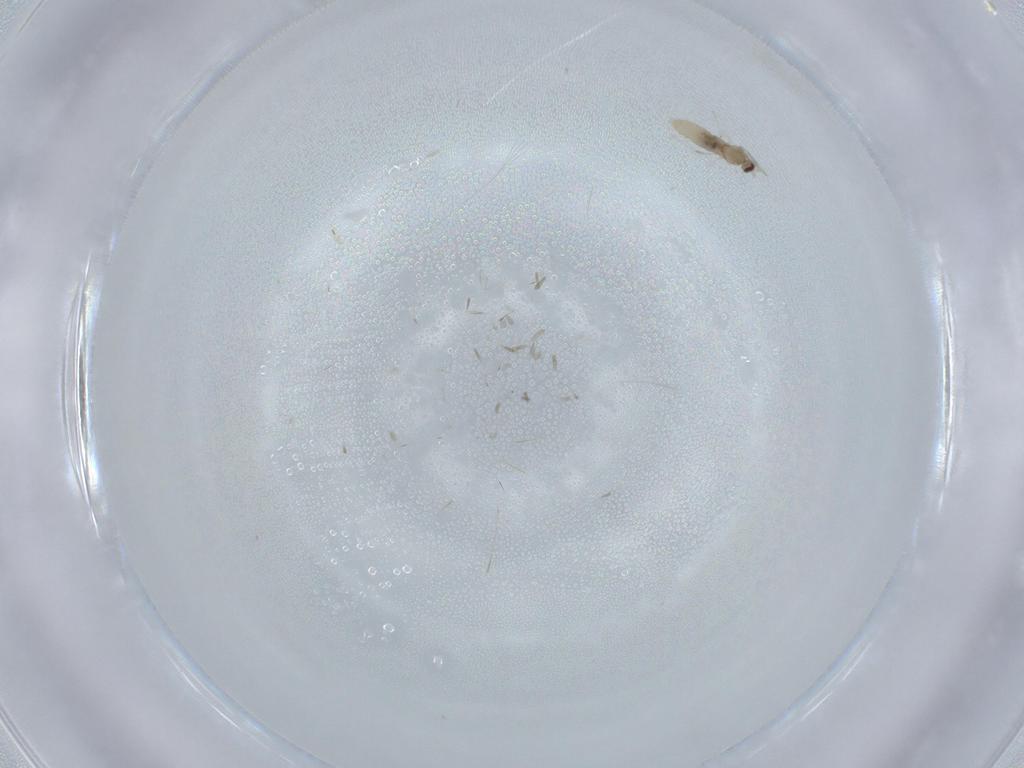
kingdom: Animalia
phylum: Arthropoda
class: Insecta
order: Diptera
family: Cecidomyiidae
